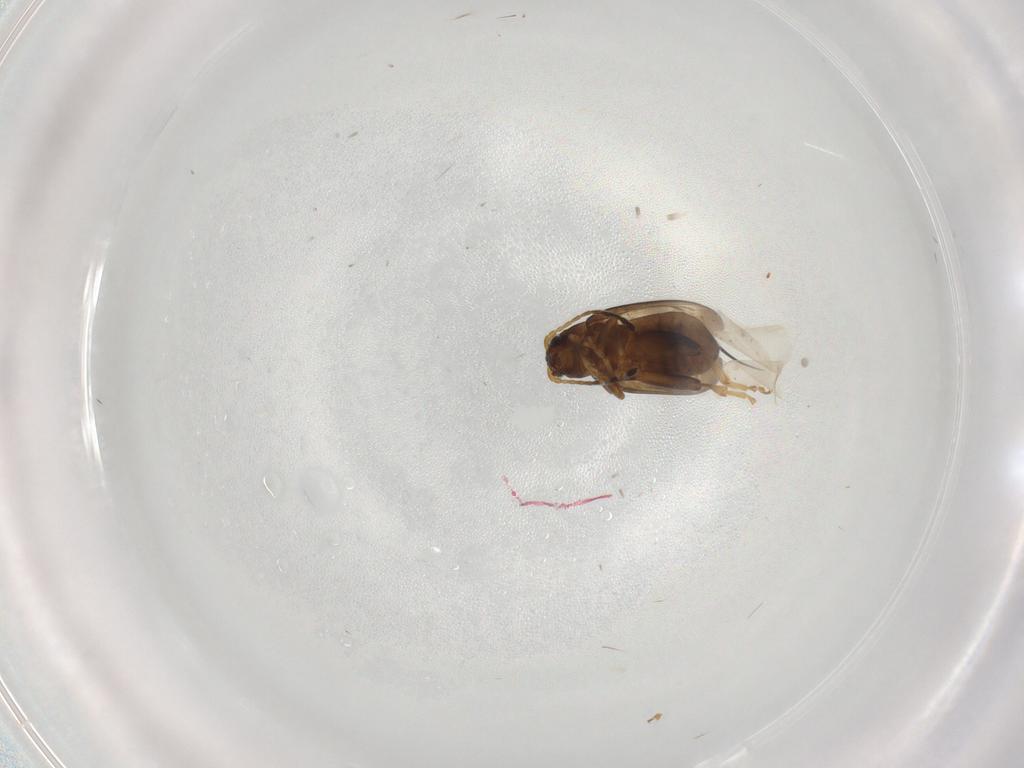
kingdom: Animalia
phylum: Arthropoda
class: Insecta
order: Coleoptera
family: Chrysomelidae
